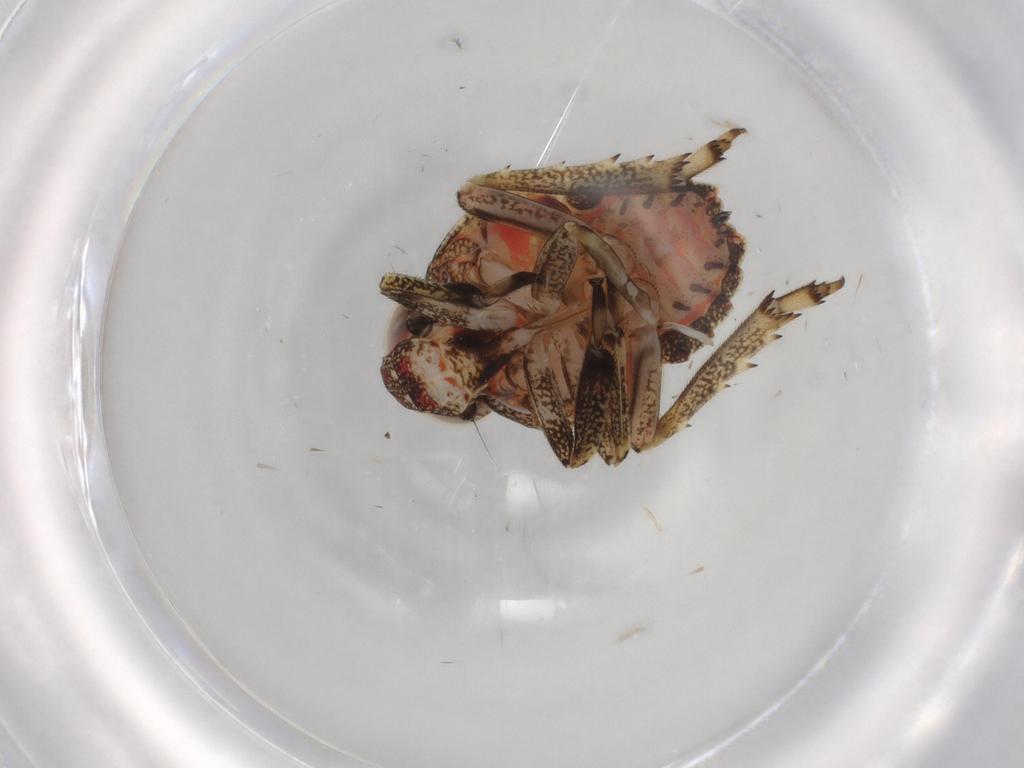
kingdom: Animalia
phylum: Arthropoda
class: Insecta
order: Hemiptera
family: Issidae
